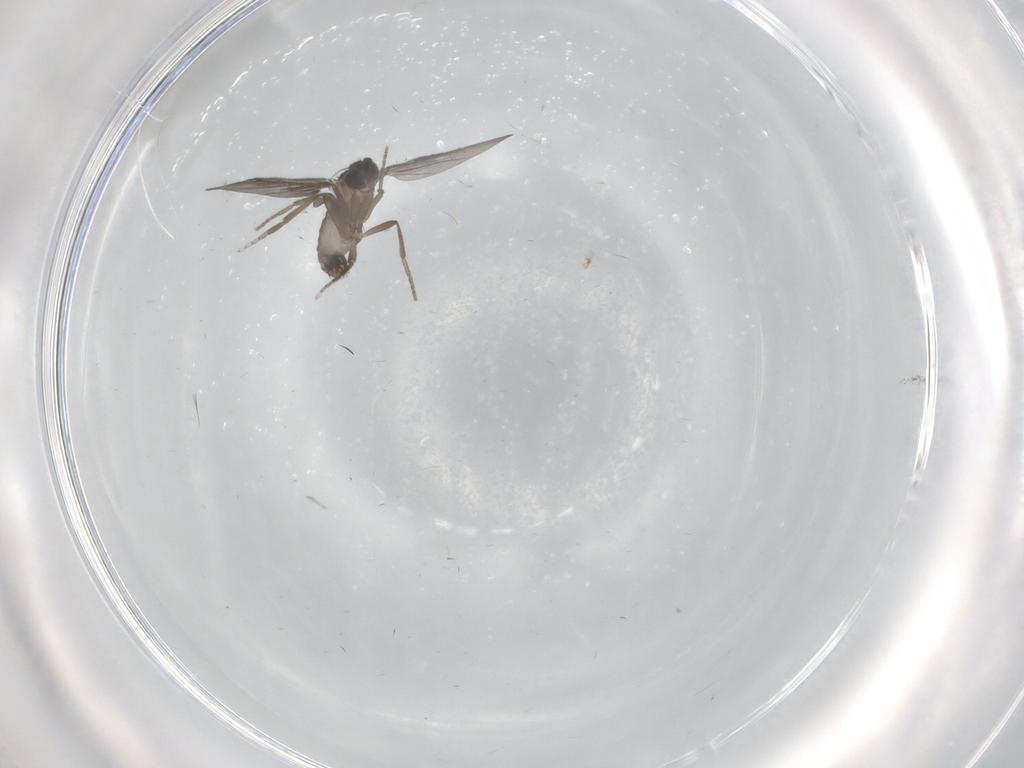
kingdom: Animalia
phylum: Arthropoda
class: Insecta
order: Diptera
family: Phoridae
